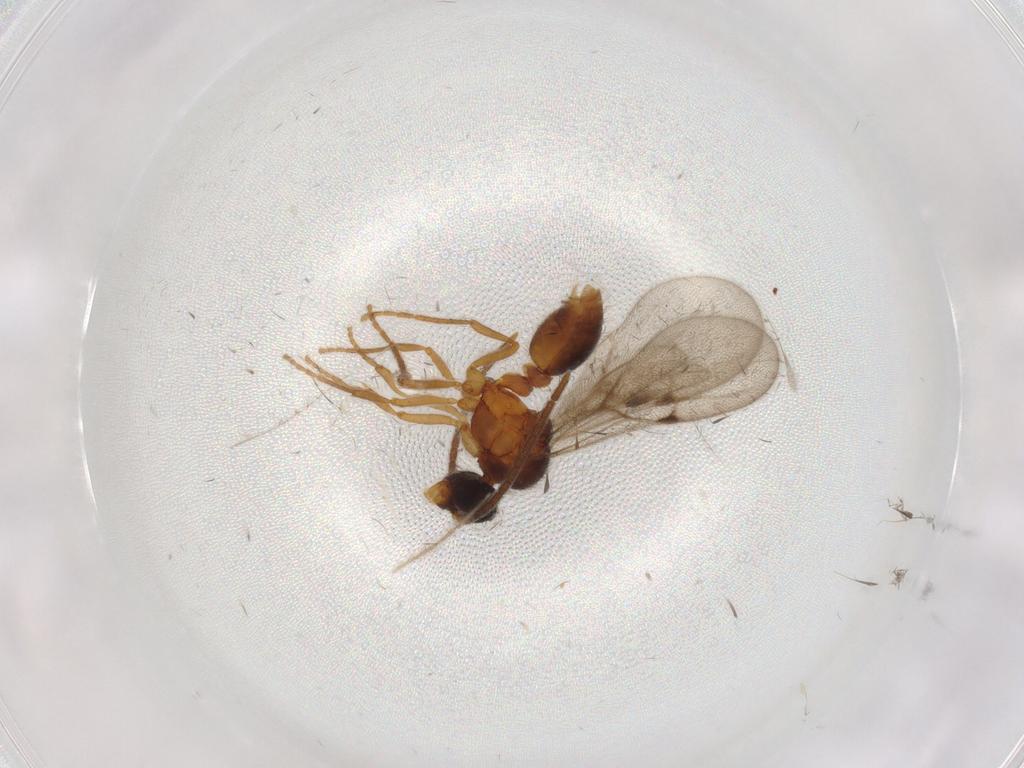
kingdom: Animalia
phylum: Arthropoda
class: Insecta
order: Hymenoptera
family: Formicidae
